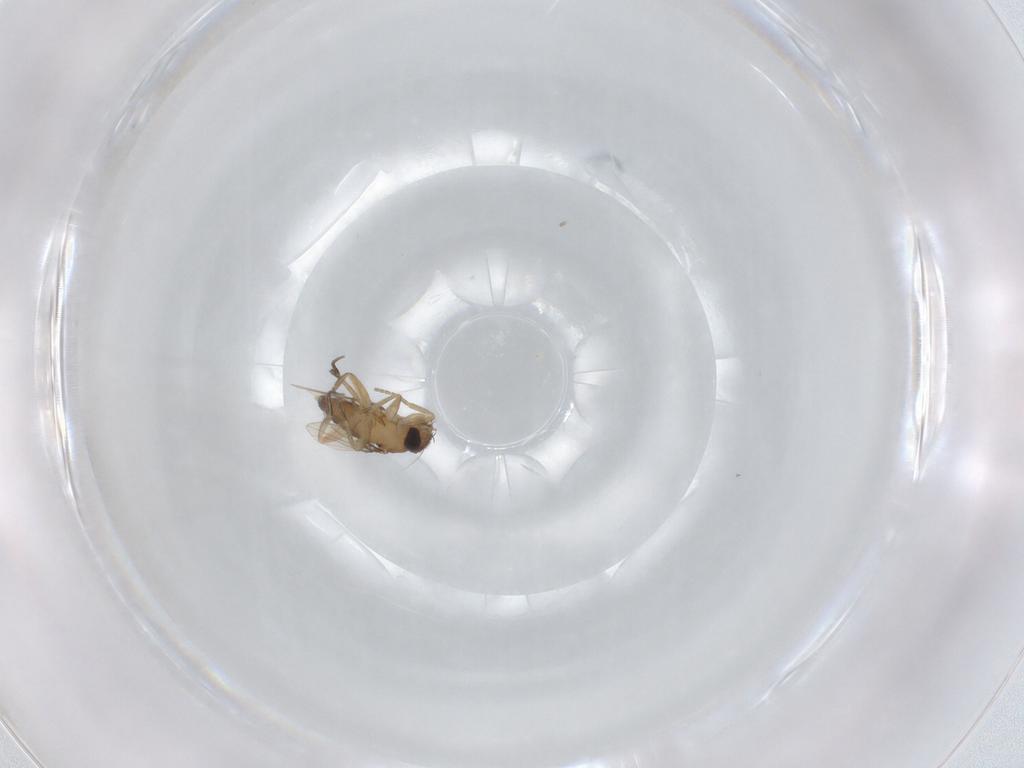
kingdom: Animalia
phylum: Arthropoda
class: Insecta
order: Diptera
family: Phoridae
